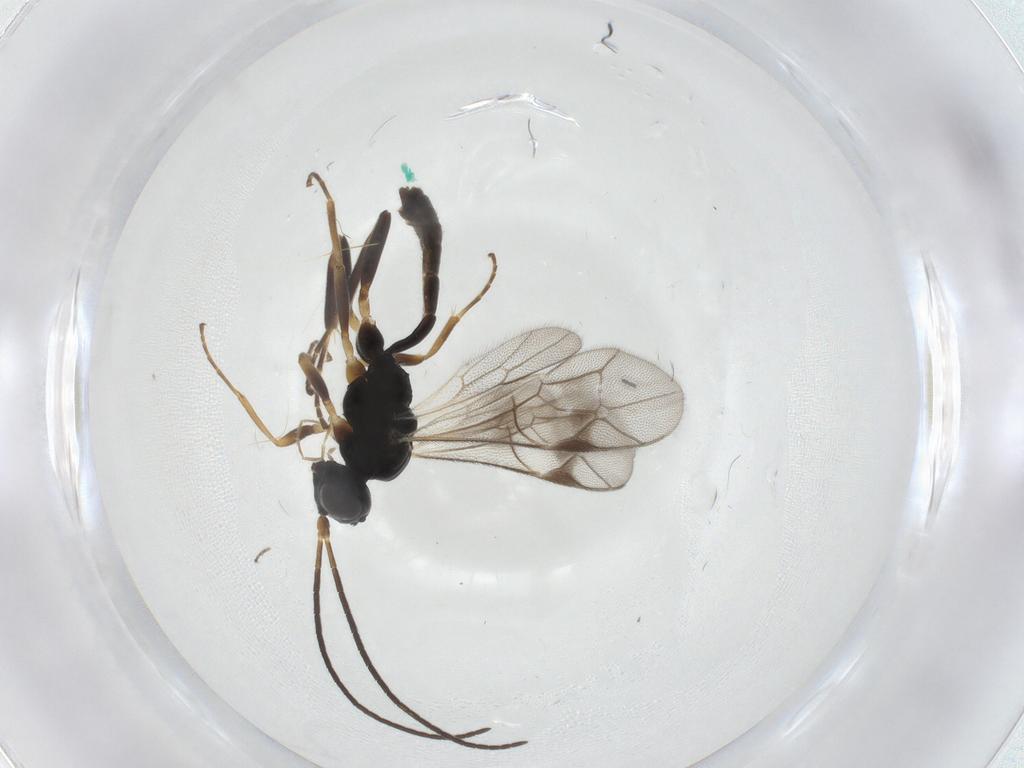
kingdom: Animalia
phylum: Arthropoda
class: Insecta
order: Hymenoptera
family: Ichneumonidae
